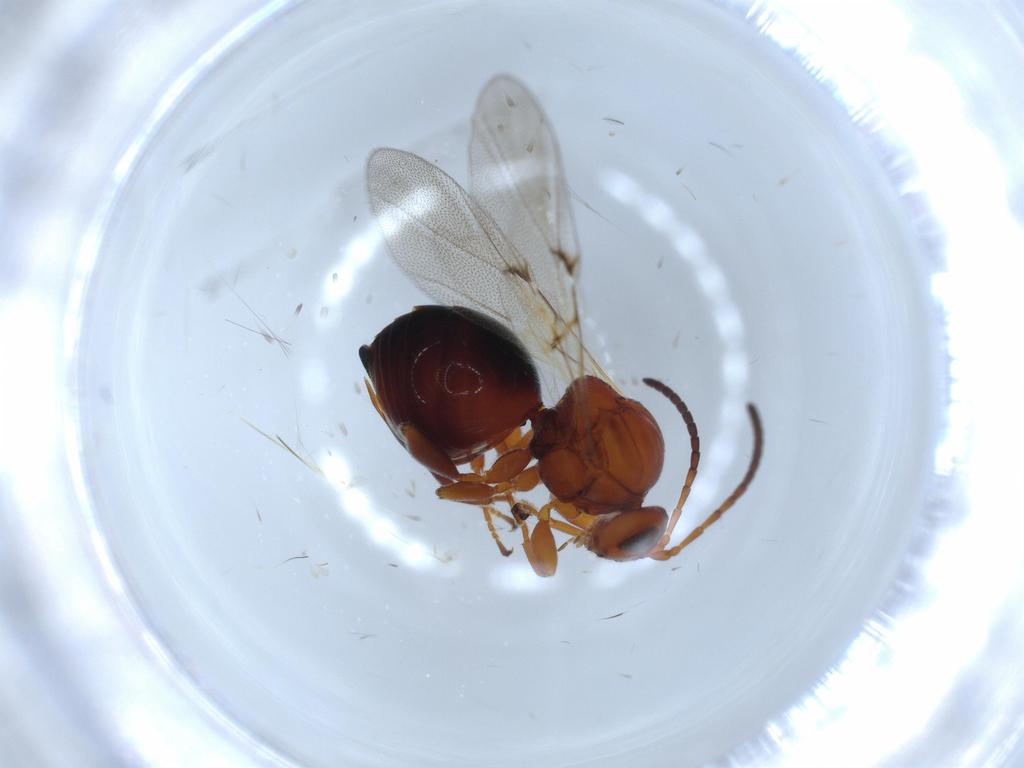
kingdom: Animalia
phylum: Arthropoda
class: Insecta
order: Hymenoptera
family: Cynipidae
